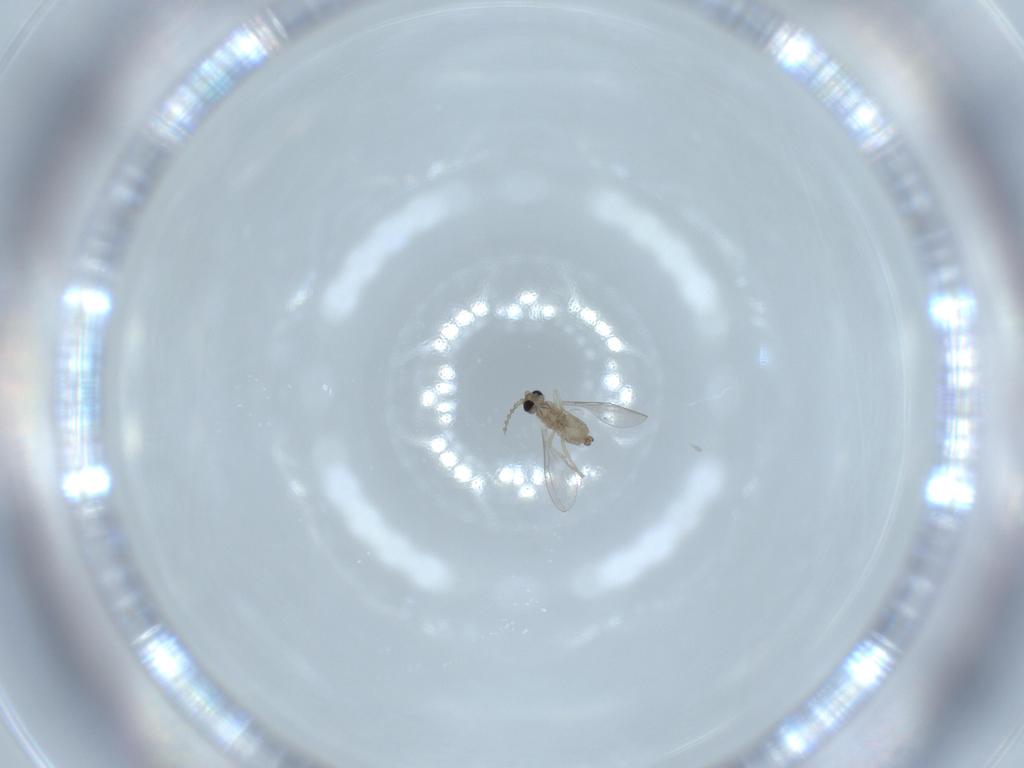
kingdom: Animalia
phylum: Arthropoda
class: Insecta
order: Diptera
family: Cecidomyiidae
